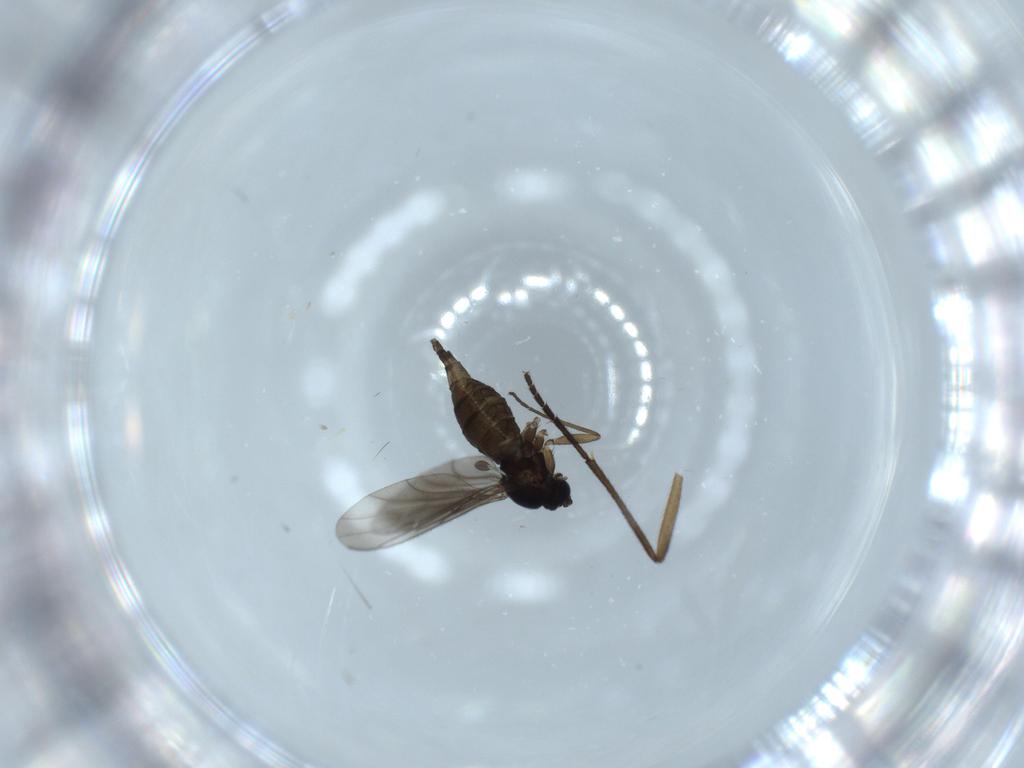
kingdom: Animalia
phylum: Arthropoda
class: Insecta
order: Diptera
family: Sciaridae
